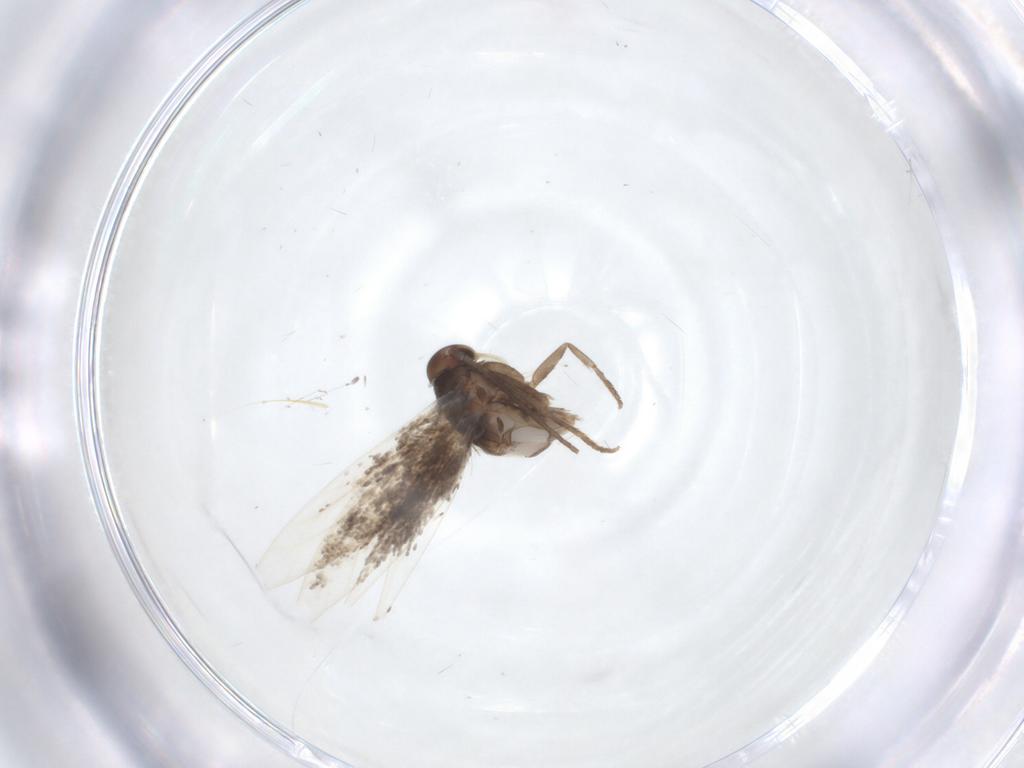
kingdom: Animalia
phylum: Arthropoda
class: Insecta
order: Lepidoptera
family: Elachistidae
